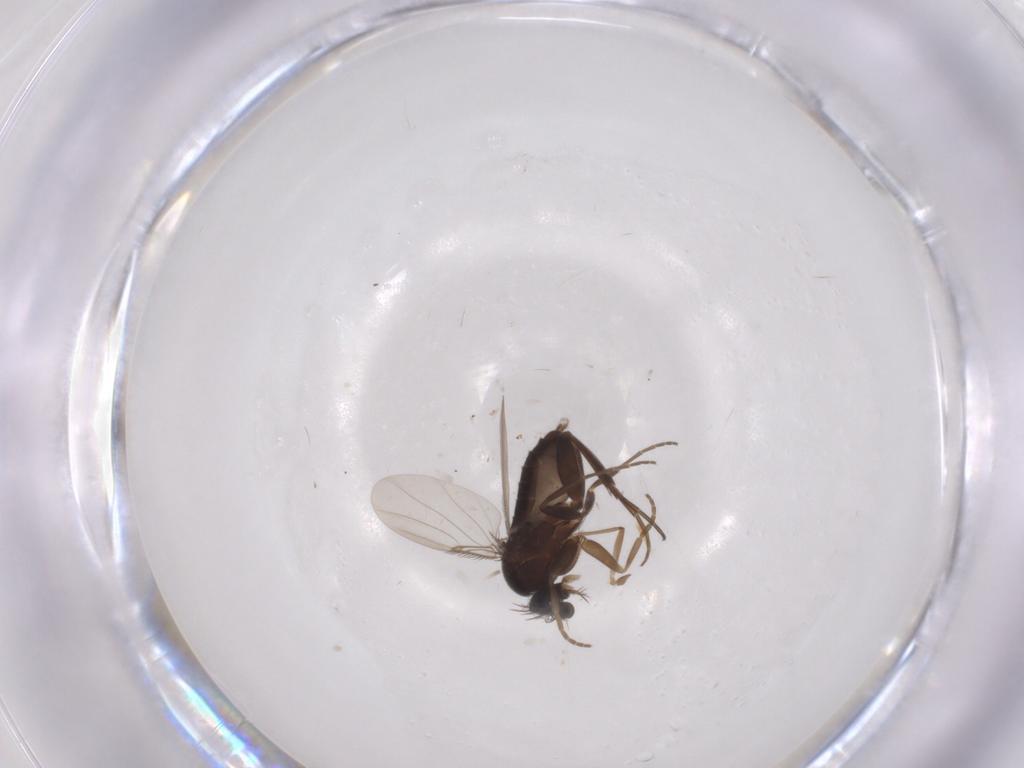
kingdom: Animalia
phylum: Arthropoda
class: Insecta
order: Diptera
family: Chironomidae
